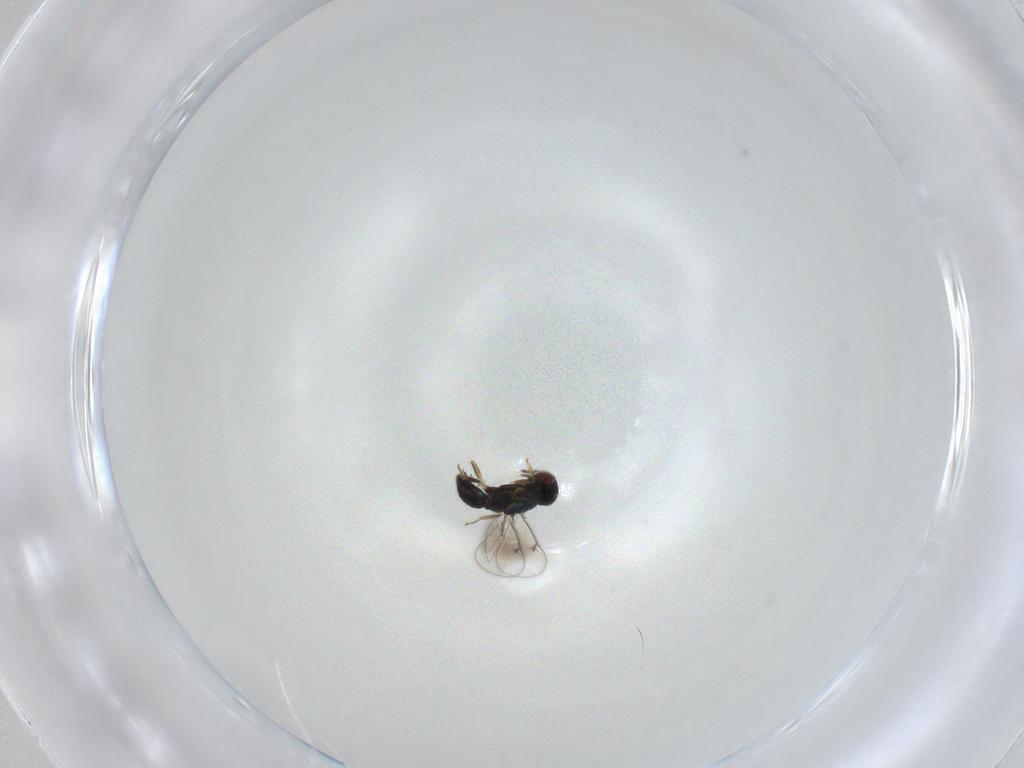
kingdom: Animalia
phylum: Arthropoda
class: Insecta
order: Hymenoptera
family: Eulophidae
